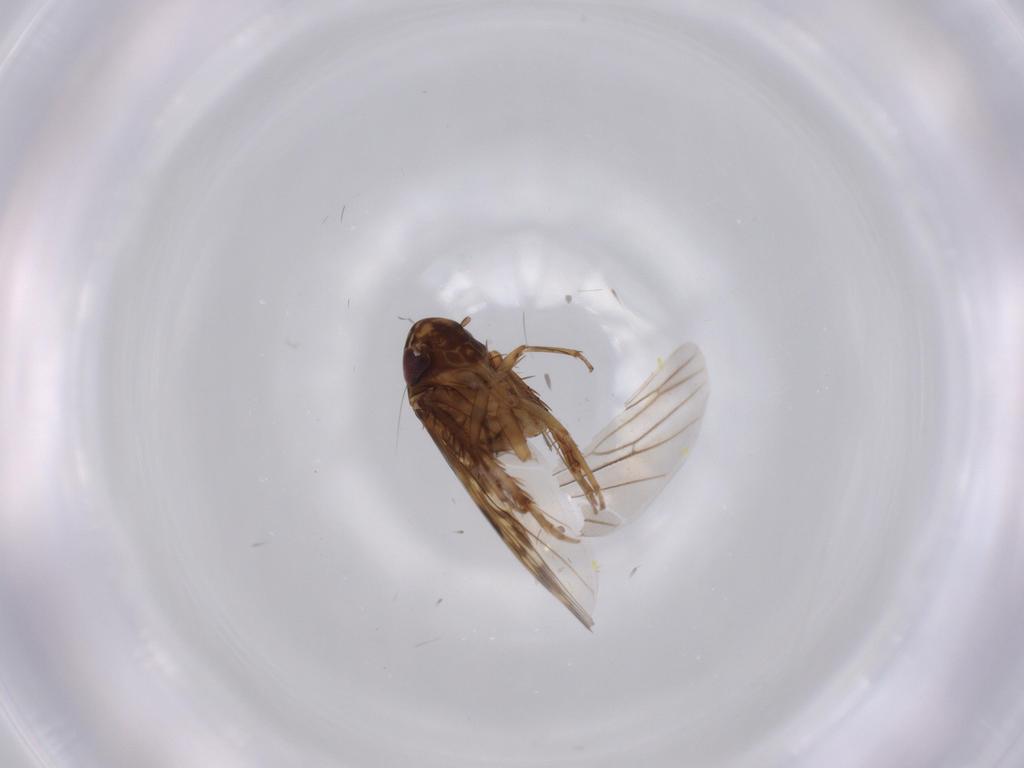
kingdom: Animalia
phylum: Arthropoda
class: Insecta
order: Hemiptera
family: Cicadellidae
